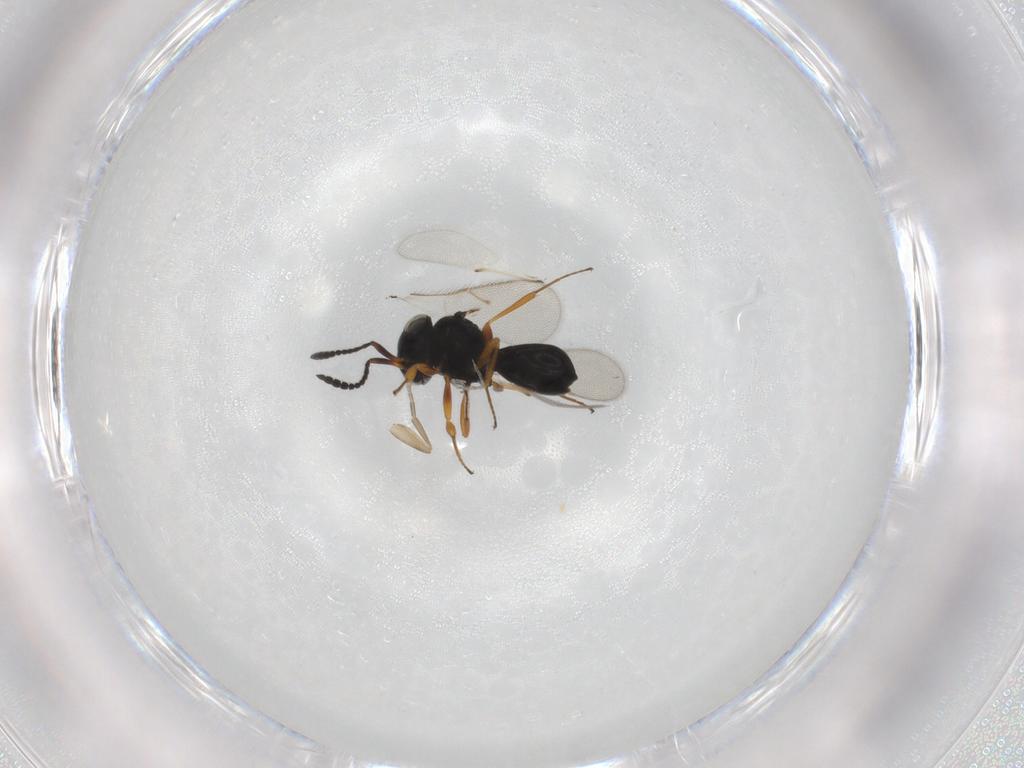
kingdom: Animalia
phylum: Arthropoda
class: Insecta
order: Hymenoptera
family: Scelionidae
